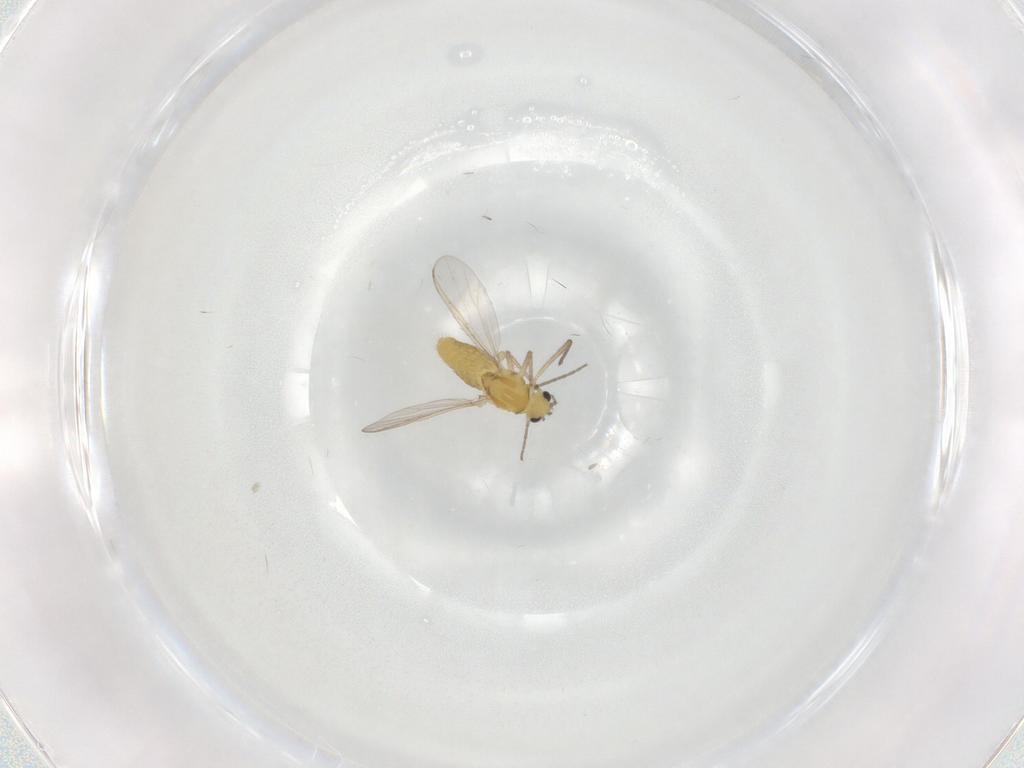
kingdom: Animalia
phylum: Arthropoda
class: Insecta
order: Diptera
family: Chironomidae
